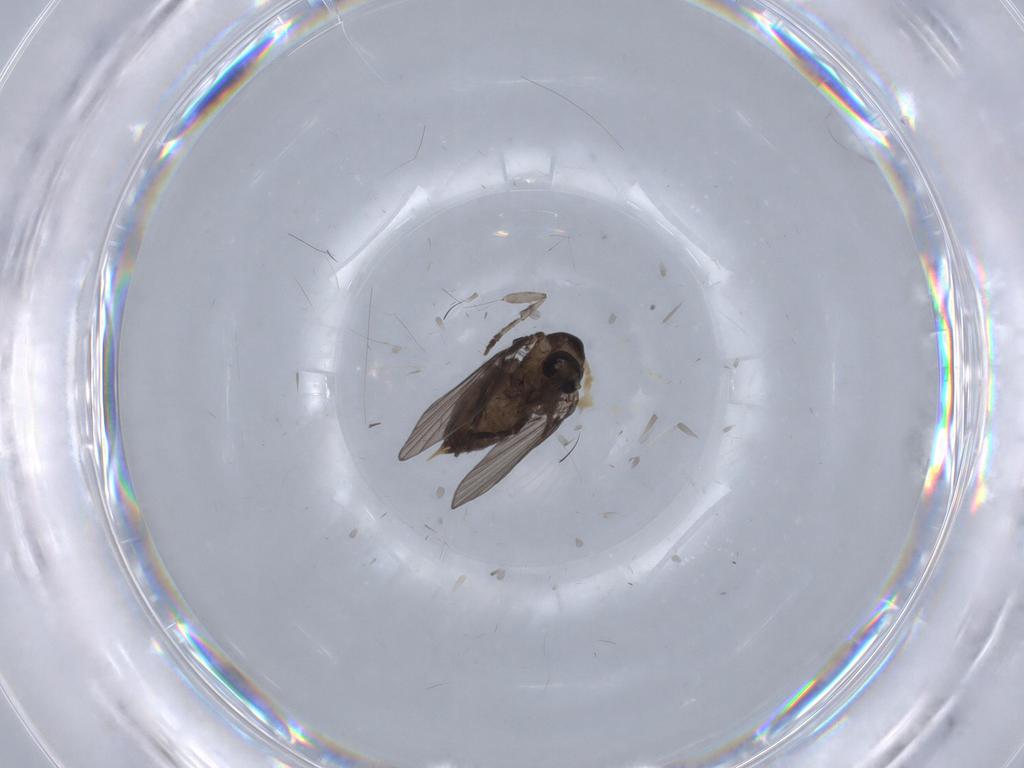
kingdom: Animalia
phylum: Arthropoda
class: Insecta
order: Diptera
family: Psychodidae
